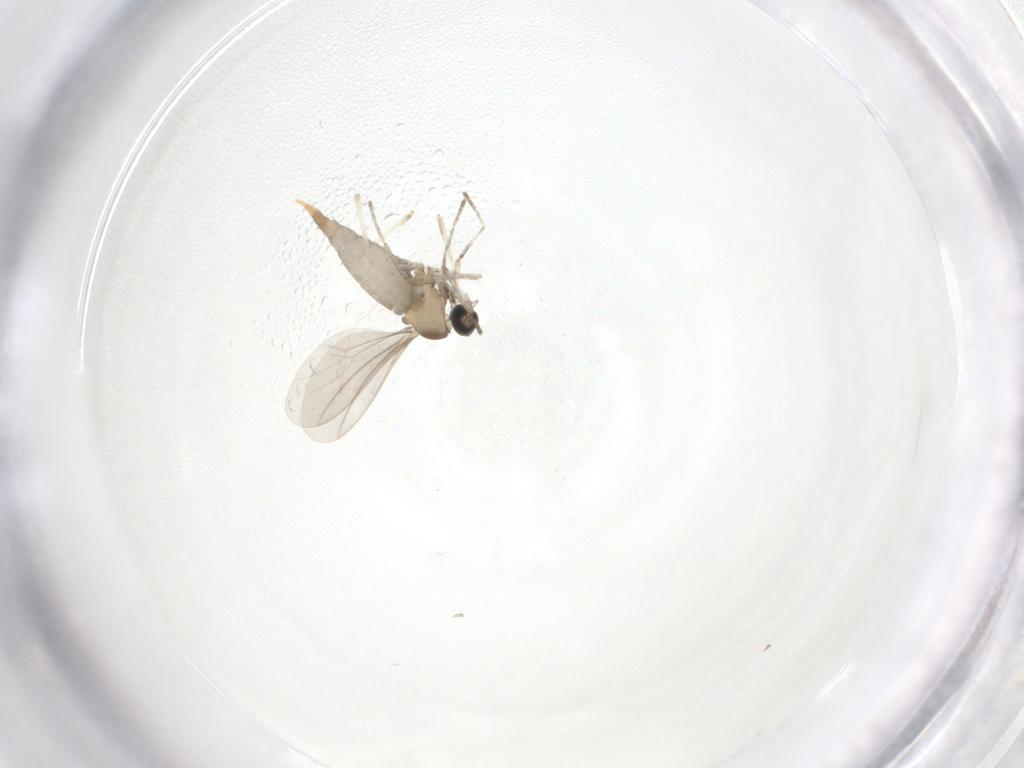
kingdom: Animalia
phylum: Arthropoda
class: Insecta
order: Diptera
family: Cecidomyiidae
